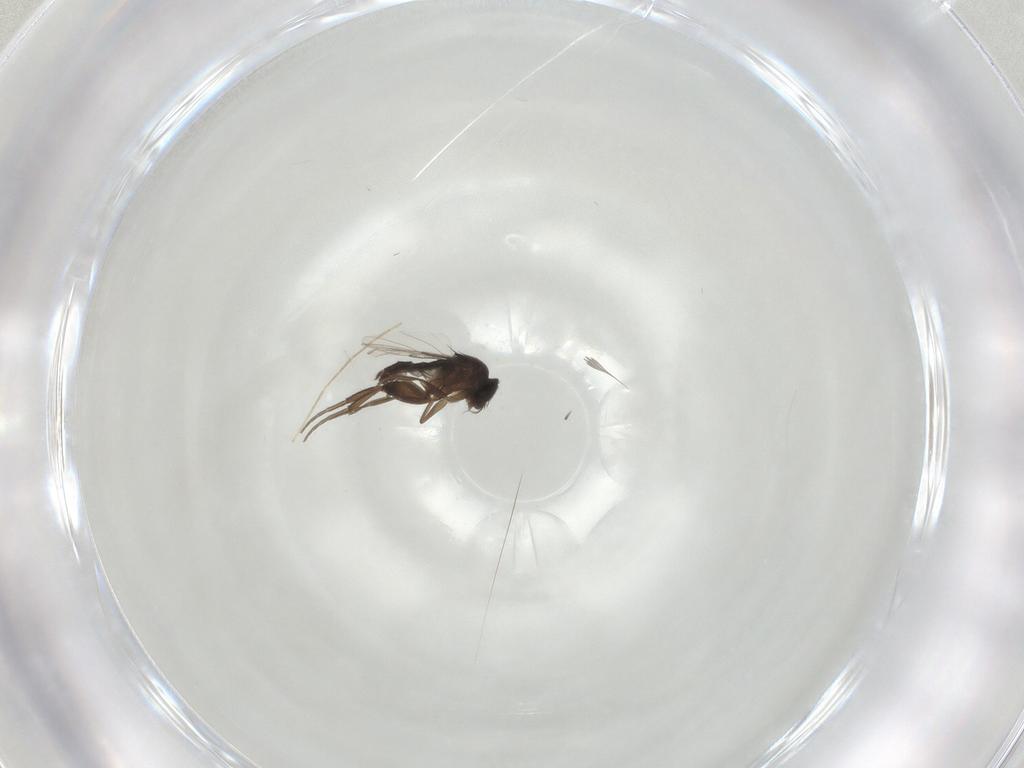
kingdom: Animalia
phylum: Arthropoda
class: Insecta
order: Diptera
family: Phoridae
